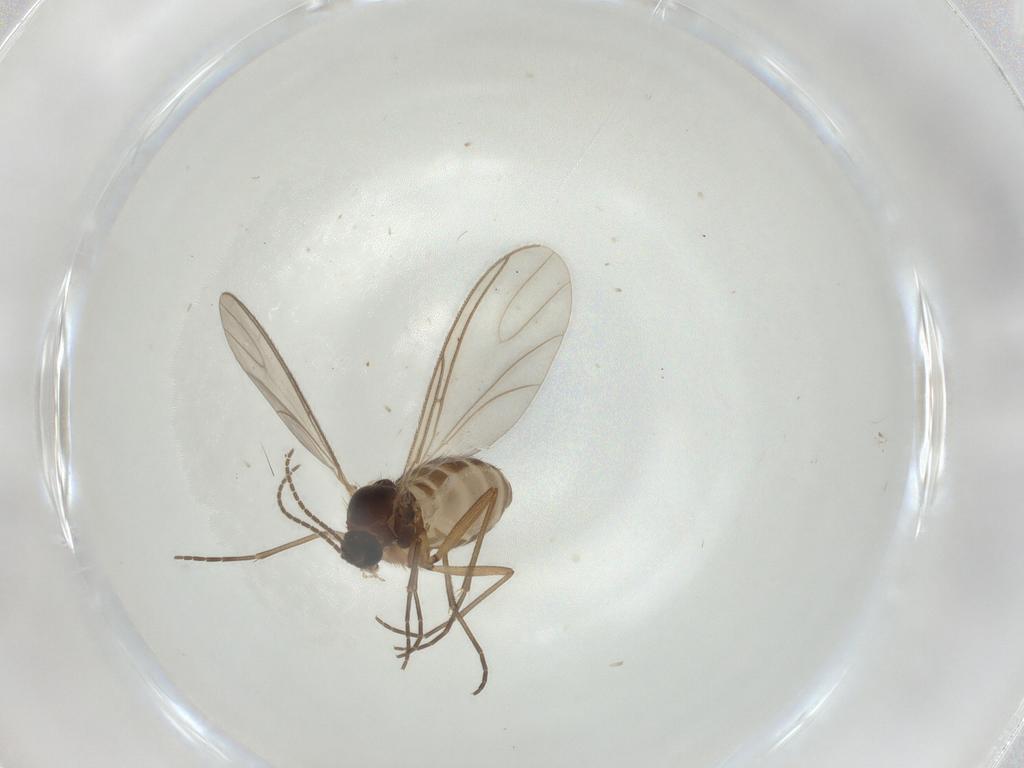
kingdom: Animalia
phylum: Arthropoda
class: Insecta
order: Diptera
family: Sciaridae
